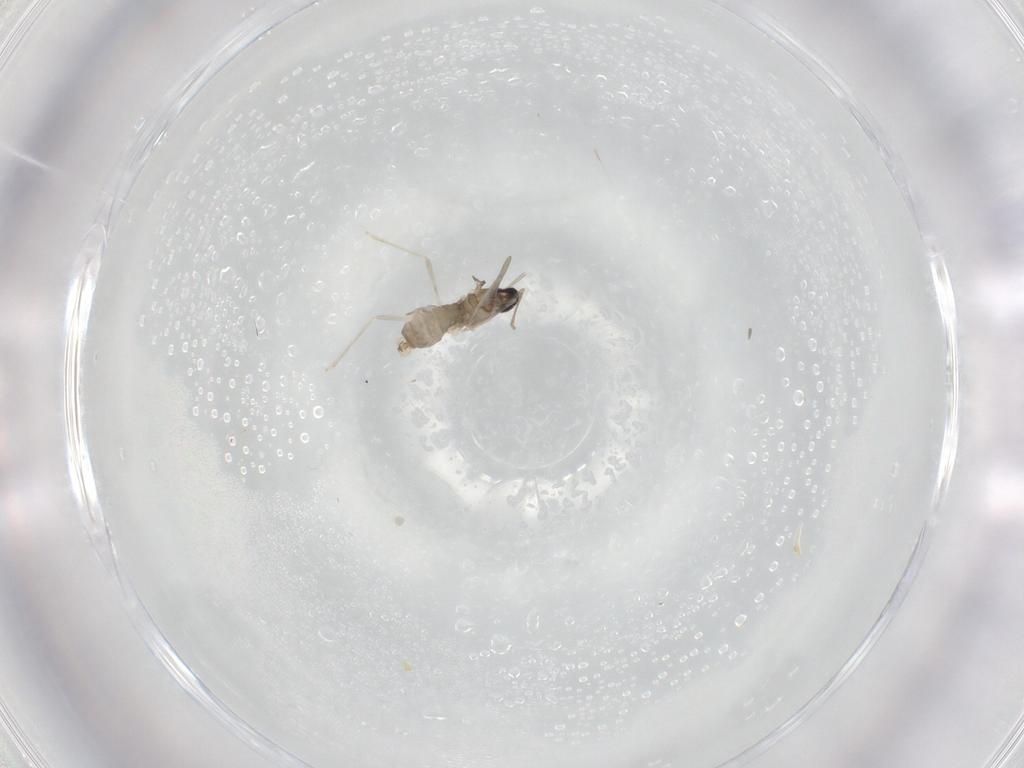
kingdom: Animalia
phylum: Arthropoda
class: Insecta
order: Diptera
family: Cecidomyiidae
